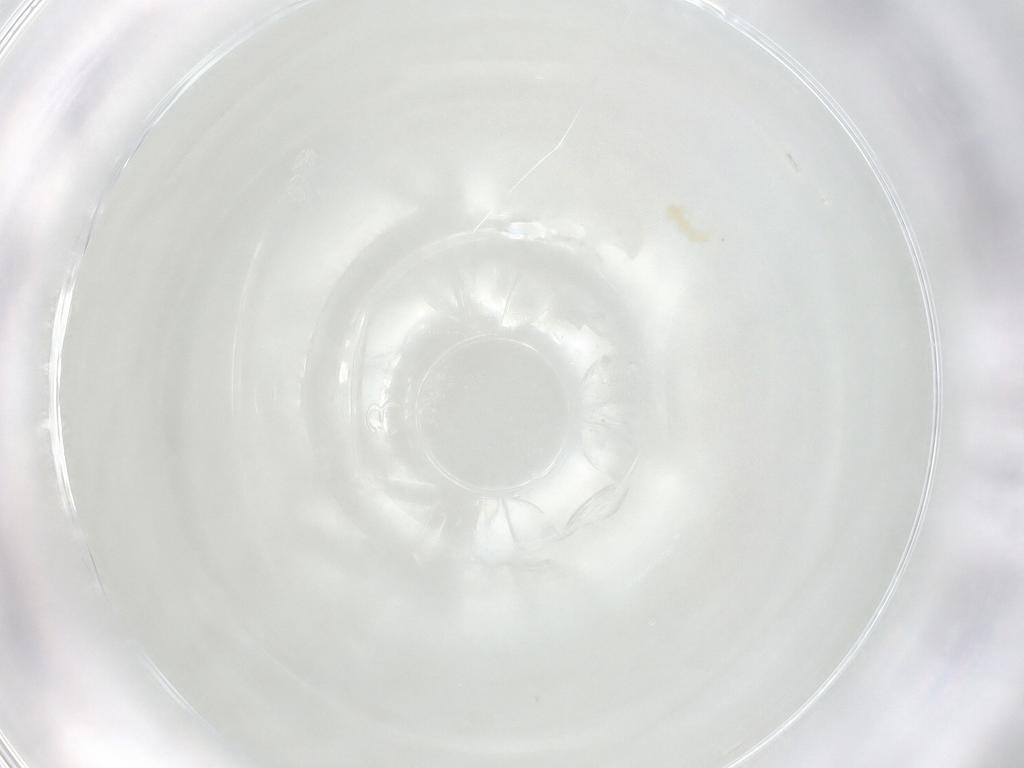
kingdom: Animalia
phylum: Arthropoda
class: Arachnida
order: Trombidiformes
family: Eupodidae
